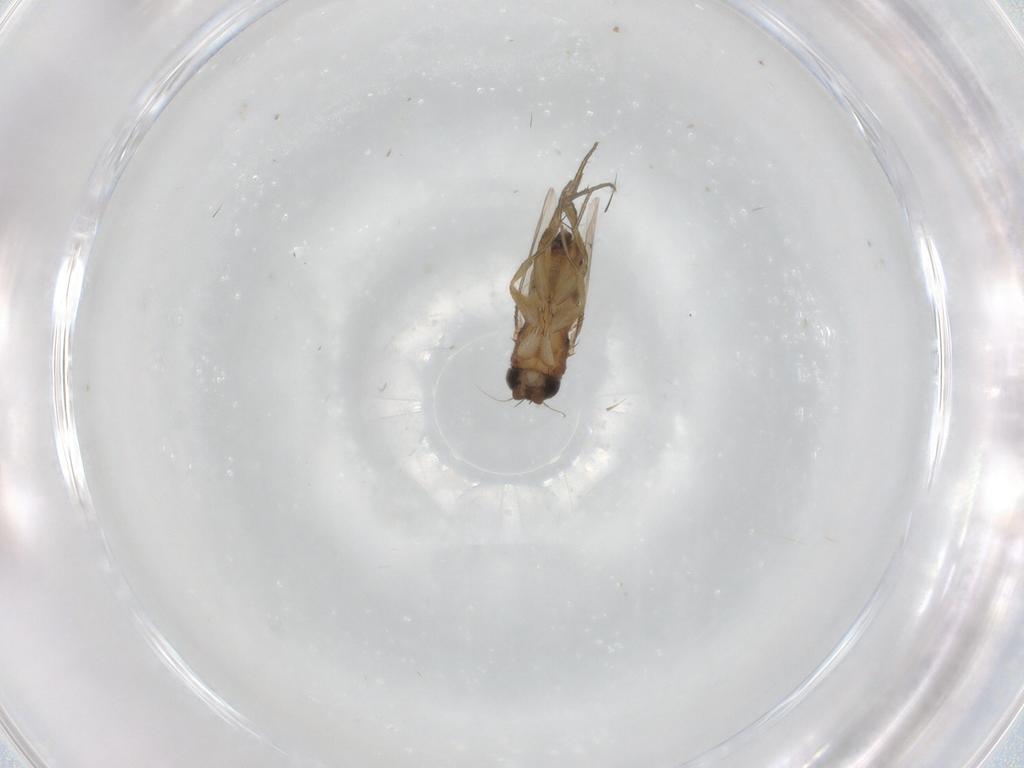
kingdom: Animalia
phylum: Arthropoda
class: Insecta
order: Diptera
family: Phoridae
